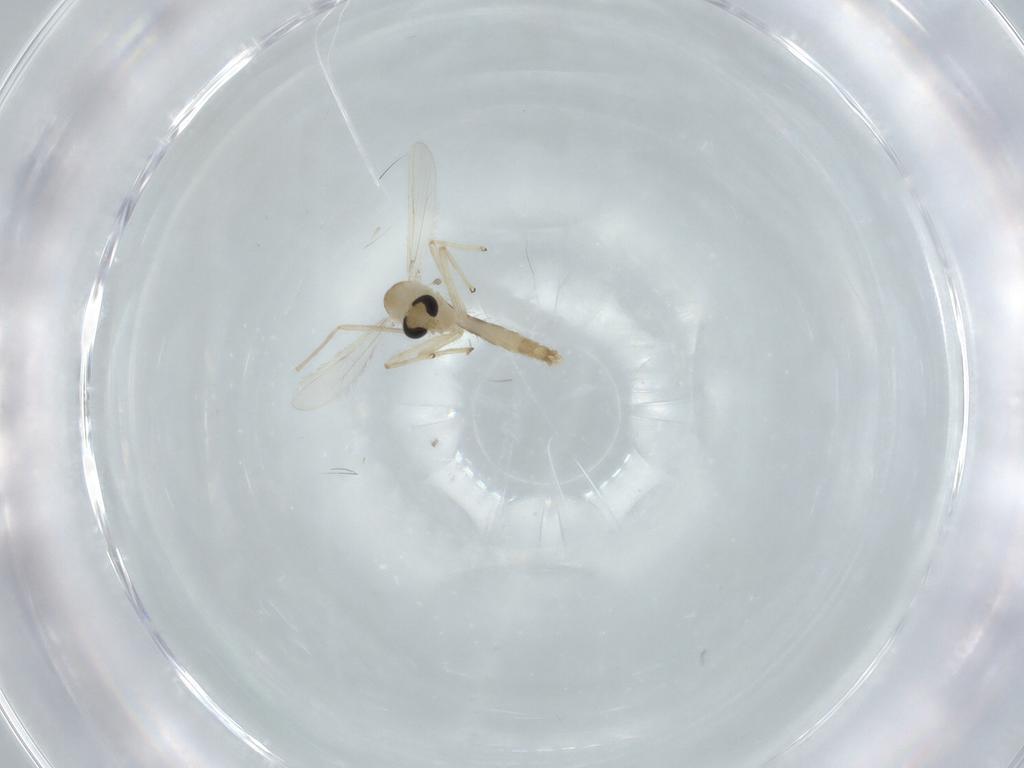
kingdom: Animalia
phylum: Arthropoda
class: Insecta
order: Diptera
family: Chironomidae
